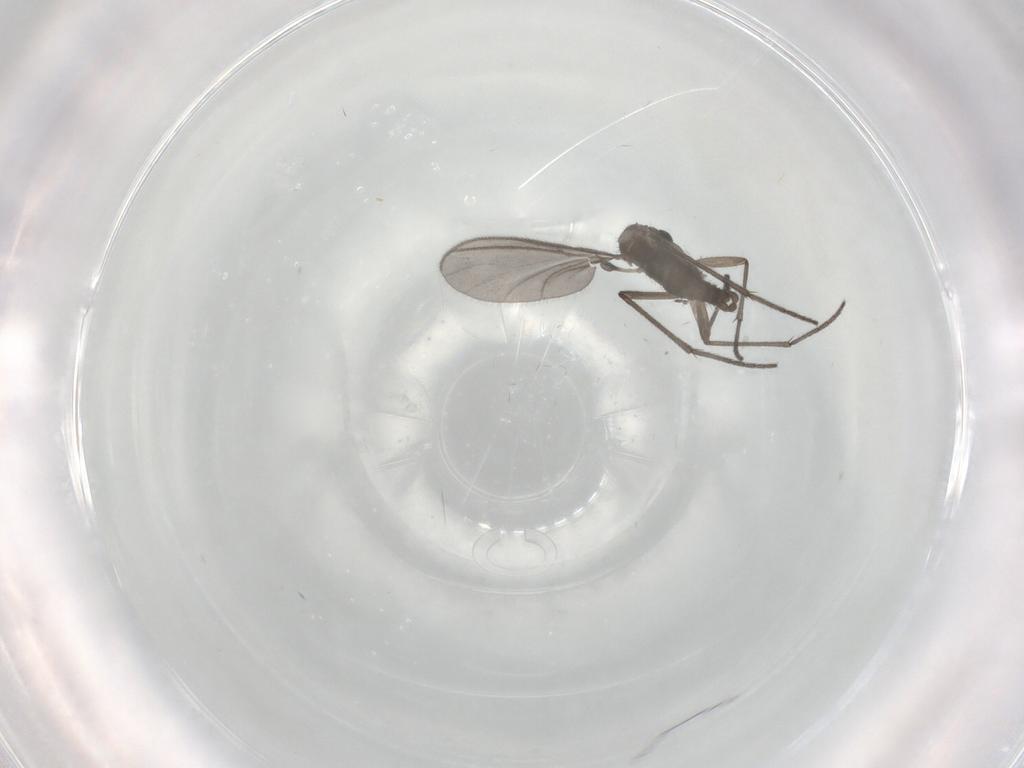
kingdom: Animalia
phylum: Arthropoda
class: Insecta
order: Diptera
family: Sciaridae
